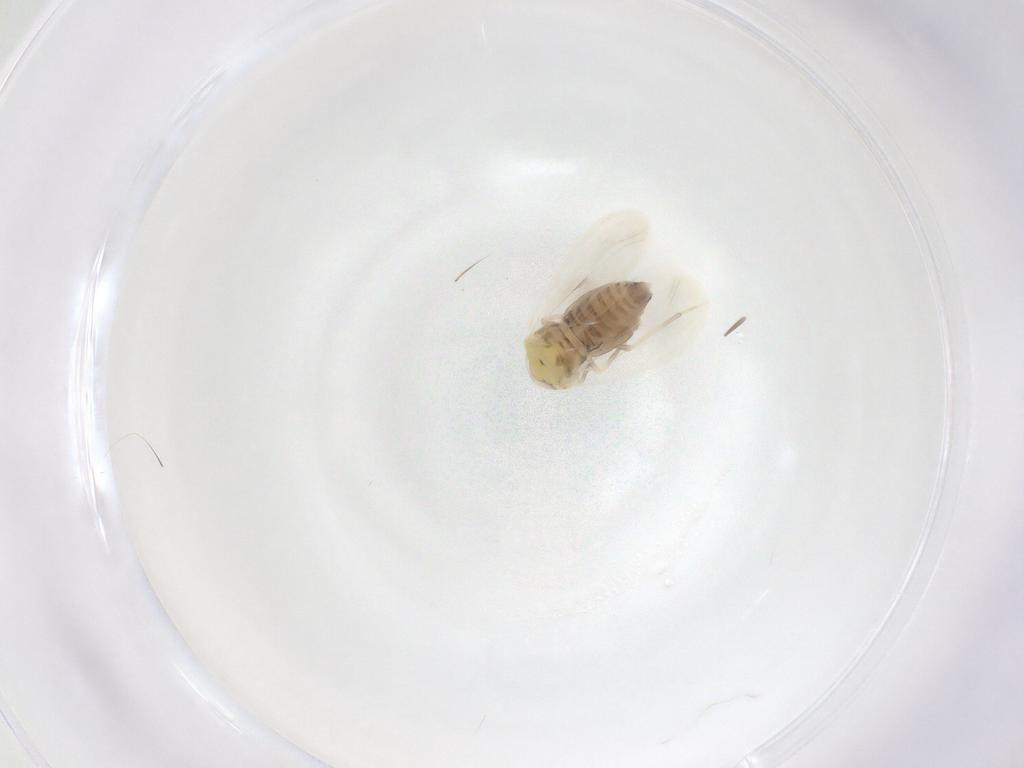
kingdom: Animalia
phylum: Arthropoda
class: Insecta
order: Hemiptera
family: Aleyrodidae
